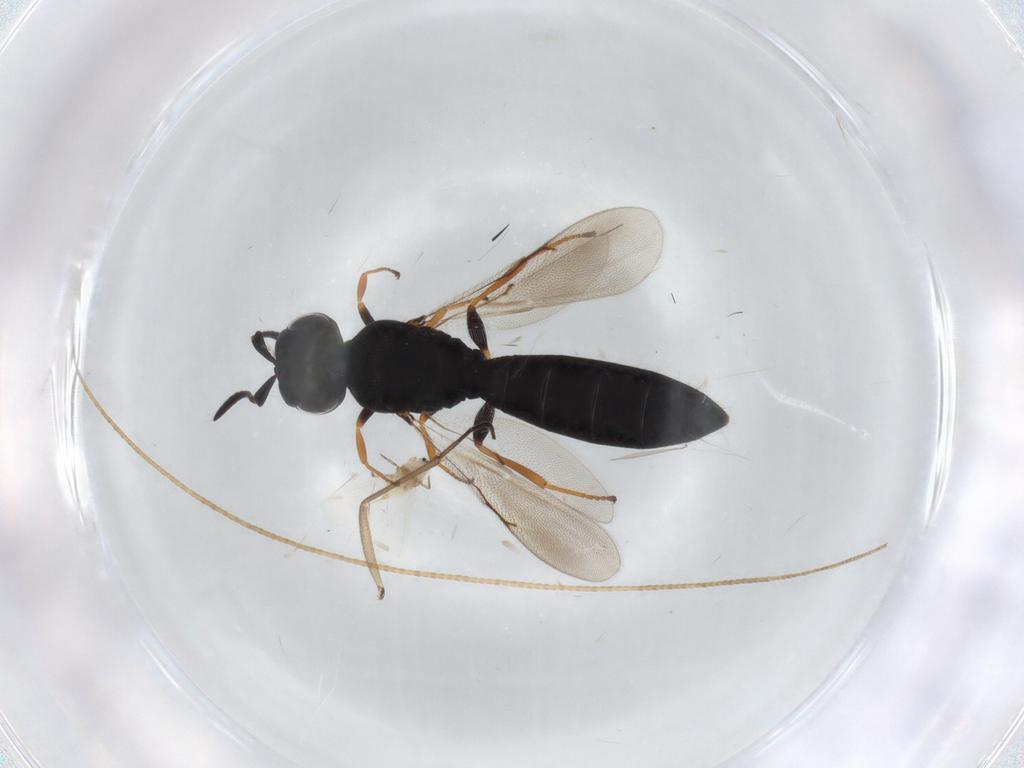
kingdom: Animalia
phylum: Arthropoda
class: Insecta
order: Hymenoptera
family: Scelionidae
